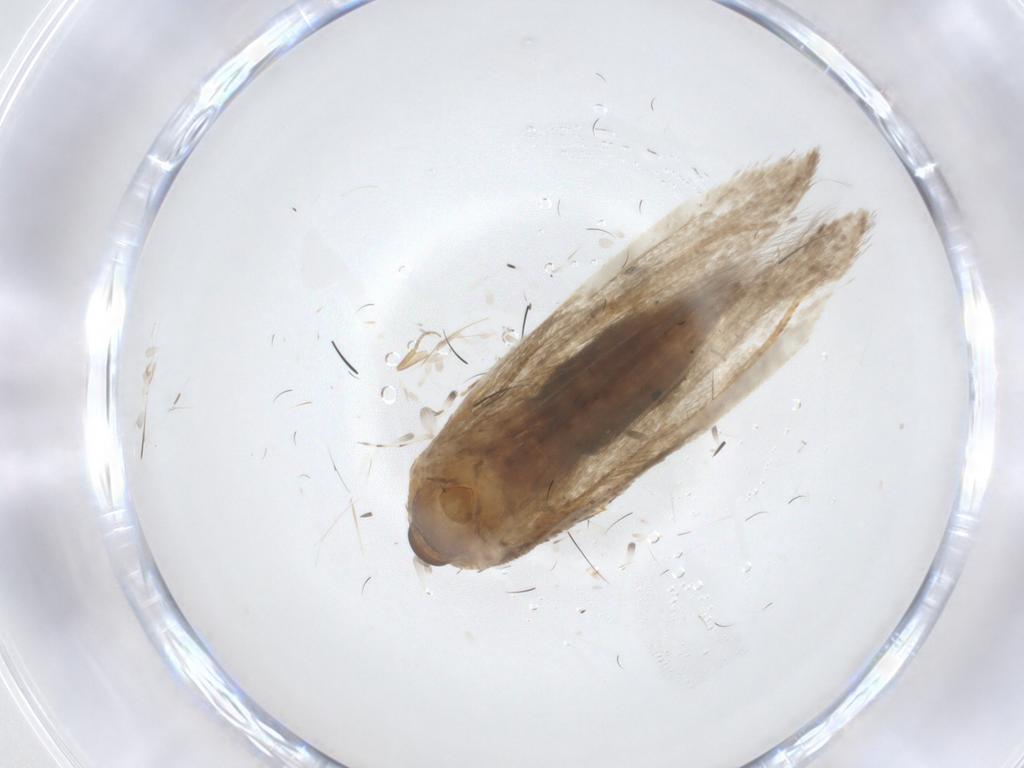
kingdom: Animalia
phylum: Arthropoda
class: Insecta
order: Lepidoptera
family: Blastobasidae
